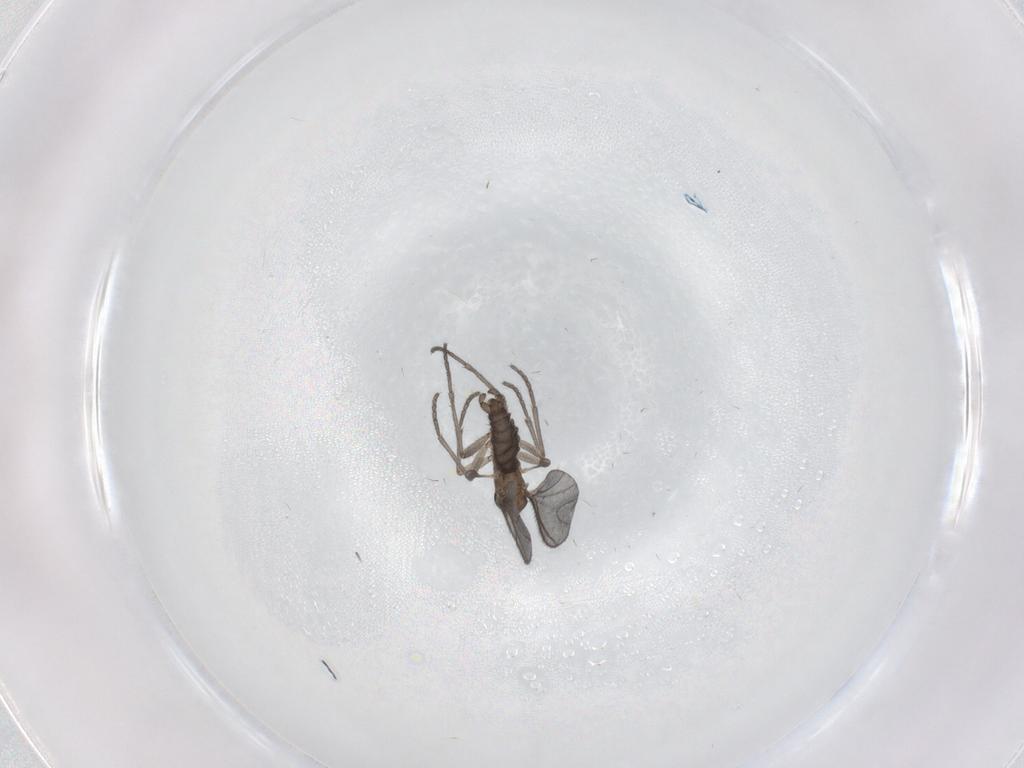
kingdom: Animalia
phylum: Arthropoda
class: Insecta
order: Diptera
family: Sciaridae
